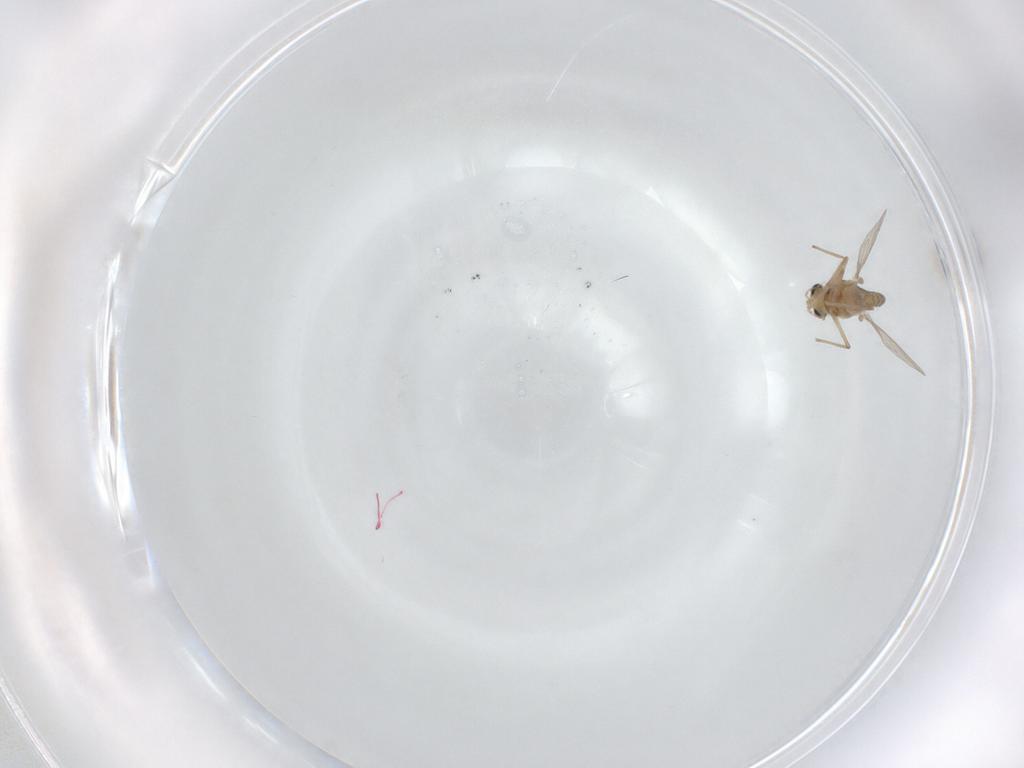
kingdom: Animalia
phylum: Arthropoda
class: Insecta
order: Diptera
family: Chironomidae
